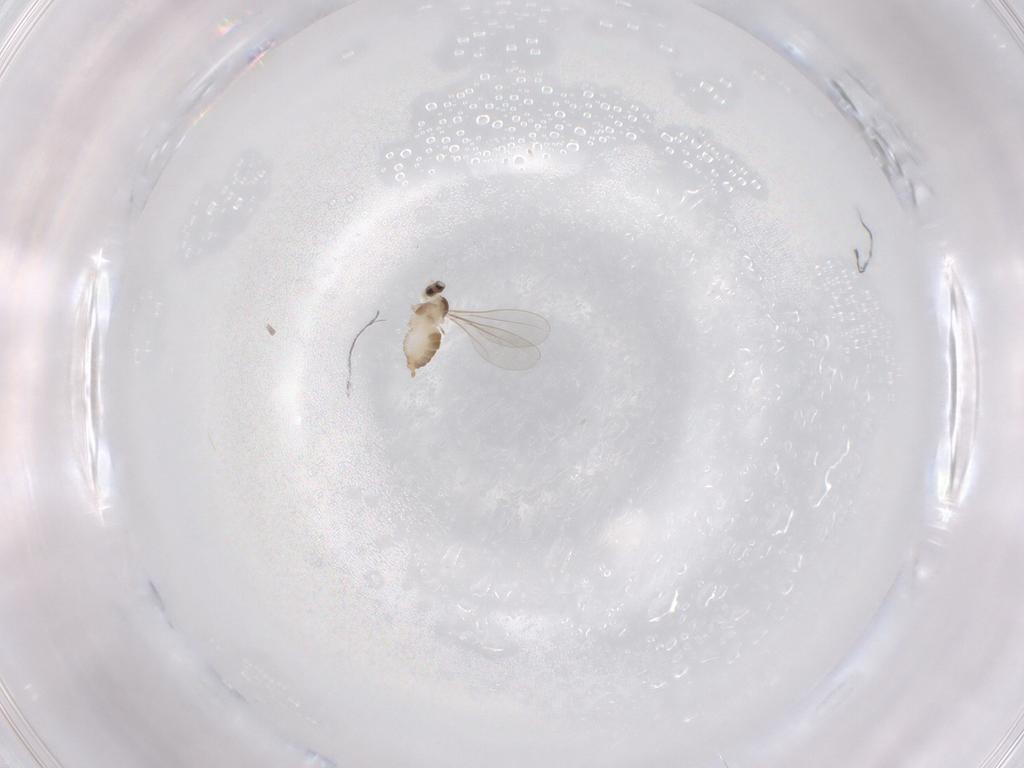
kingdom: Animalia
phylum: Arthropoda
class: Insecta
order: Diptera
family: Cecidomyiidae
